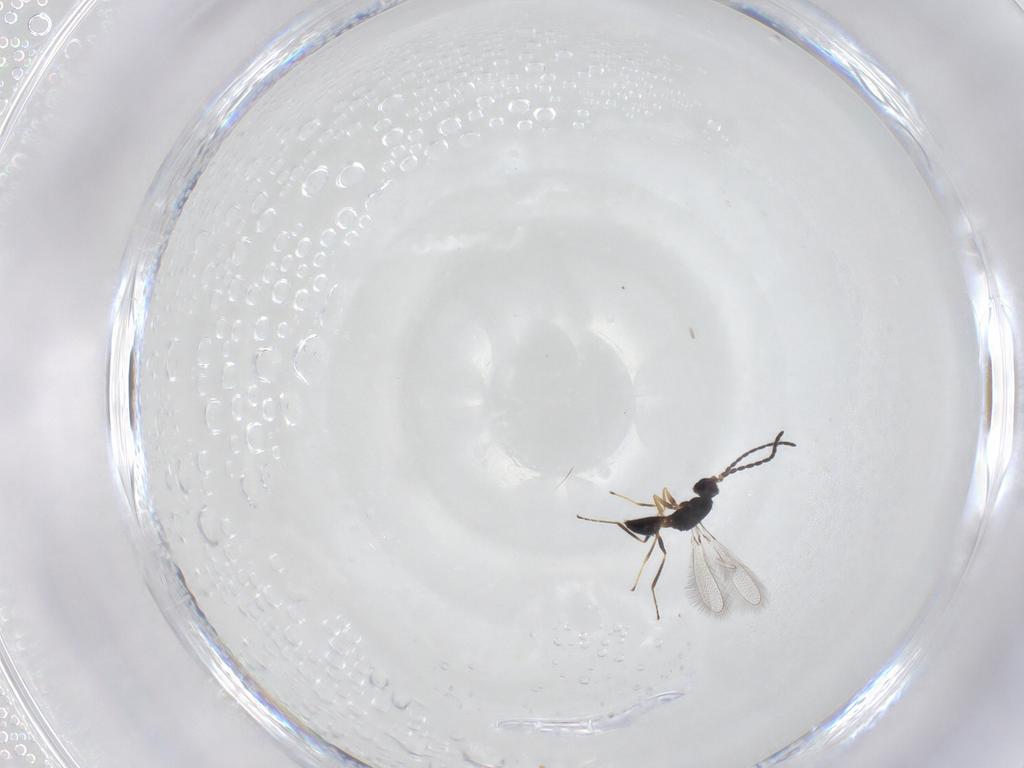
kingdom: Animalia
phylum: Arthropoda
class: Insecta
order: Hymenoptera
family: Mymaridae
